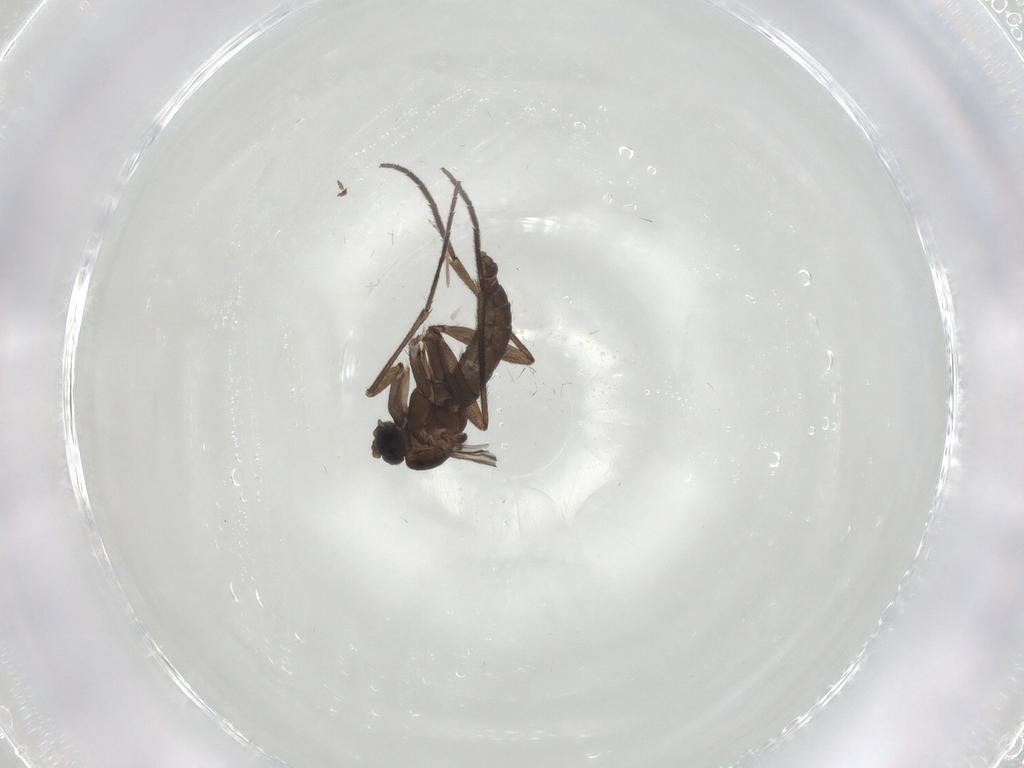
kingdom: Animalia
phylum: Arthropoda
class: Insecta
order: Diptera
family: Sciaridae
